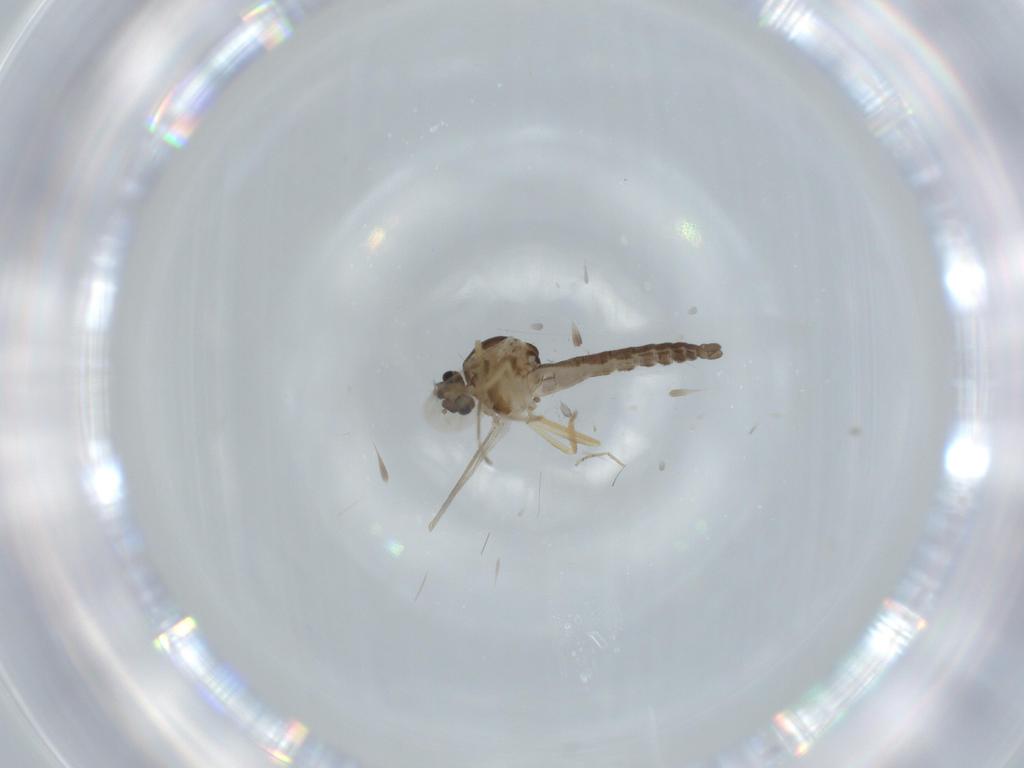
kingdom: Animalia
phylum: Arthropoda
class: Insecta
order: Diptera
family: Ceratopogonidae
